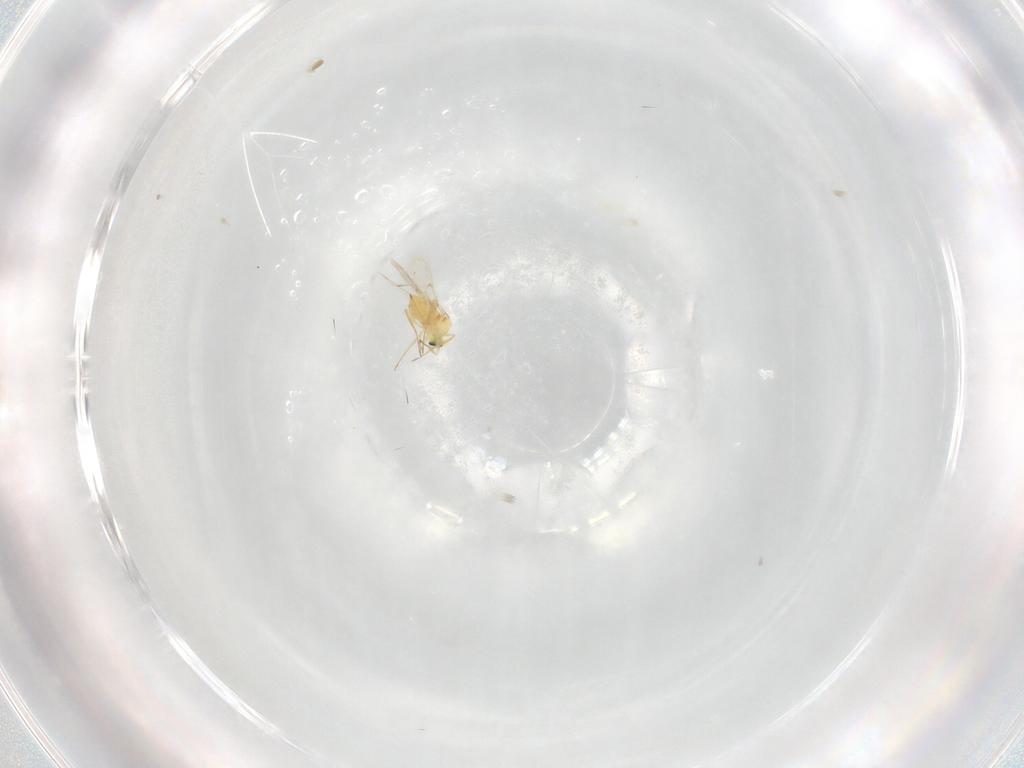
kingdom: Animalia
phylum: Arthropoda
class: Insecta
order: Hymenoptera
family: Trichogrammatidae
